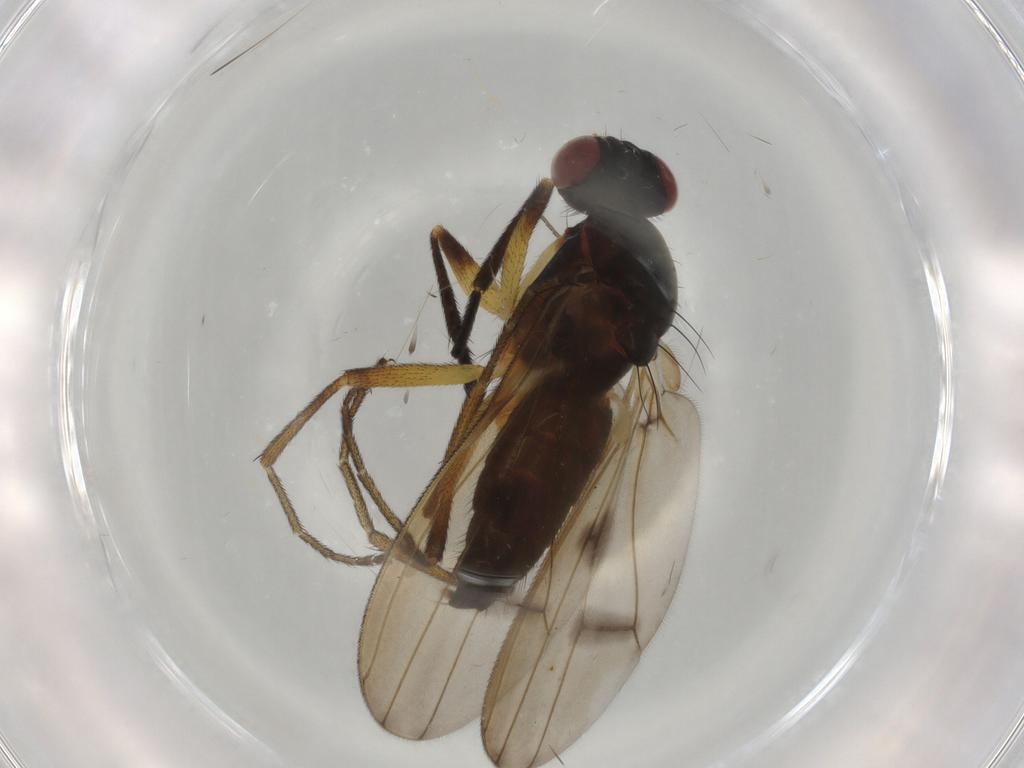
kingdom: Animalia
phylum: Arthropoda
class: Insecta
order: Diptera
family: Sciomyzidae
